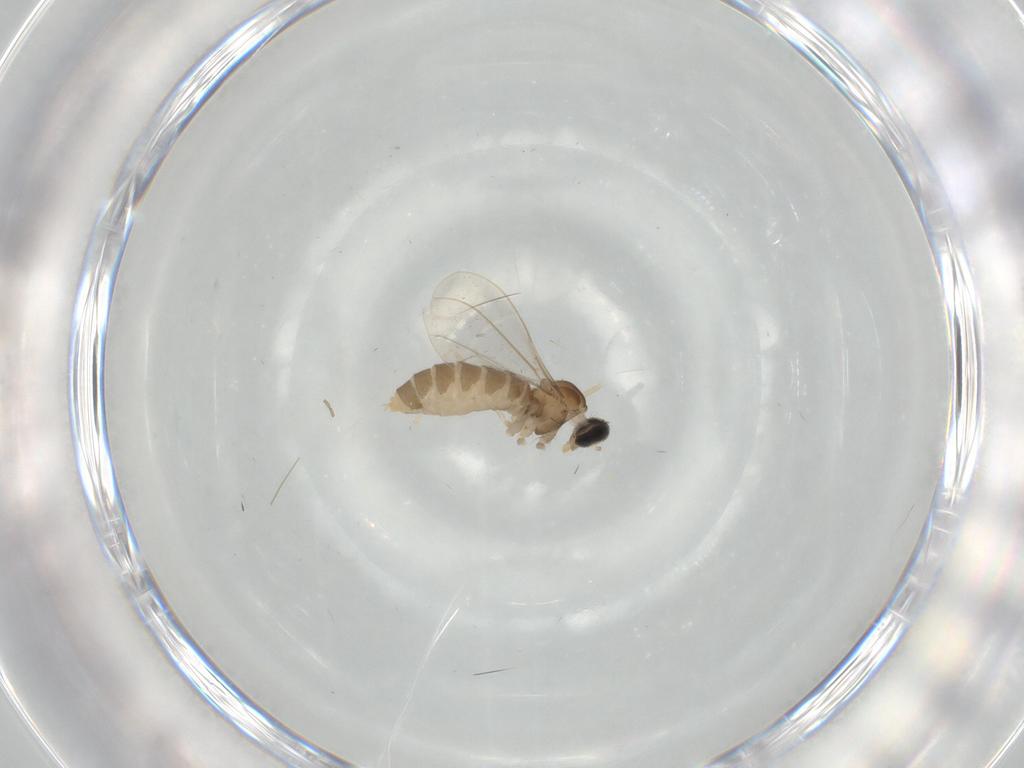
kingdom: Animalia
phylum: Arthropoda
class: Insecta
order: Diptera
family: Cecidomyiidae
